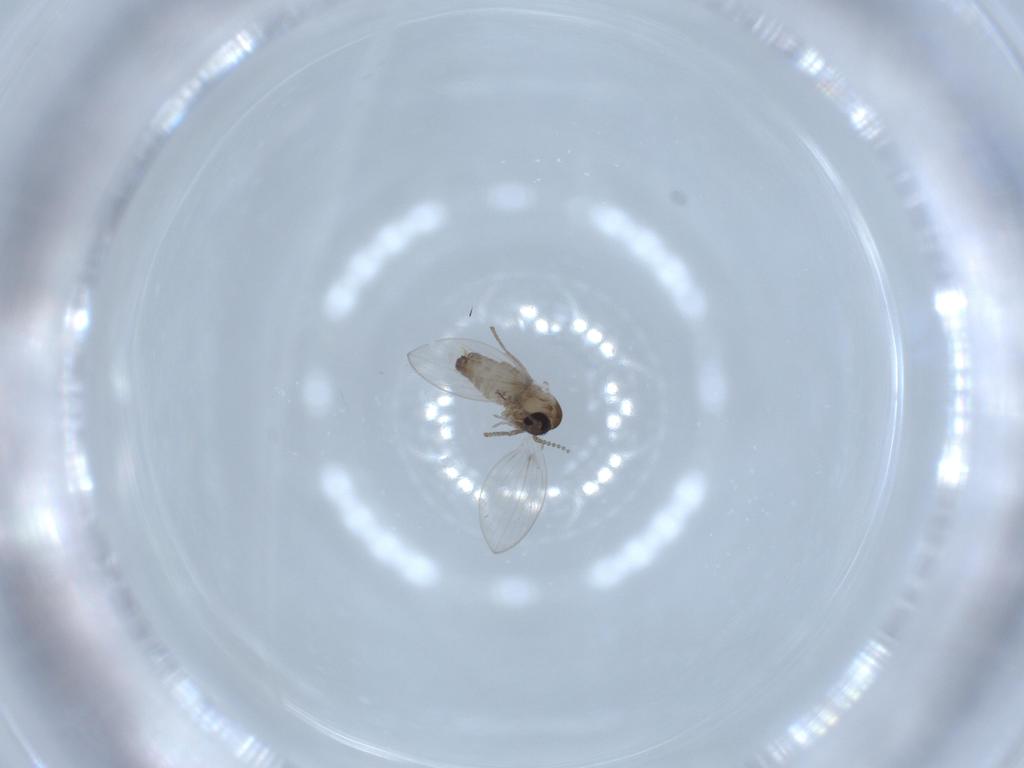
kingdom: Animalia
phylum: Arthropoda
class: Insecta
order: Diptera
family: Psychodidae
